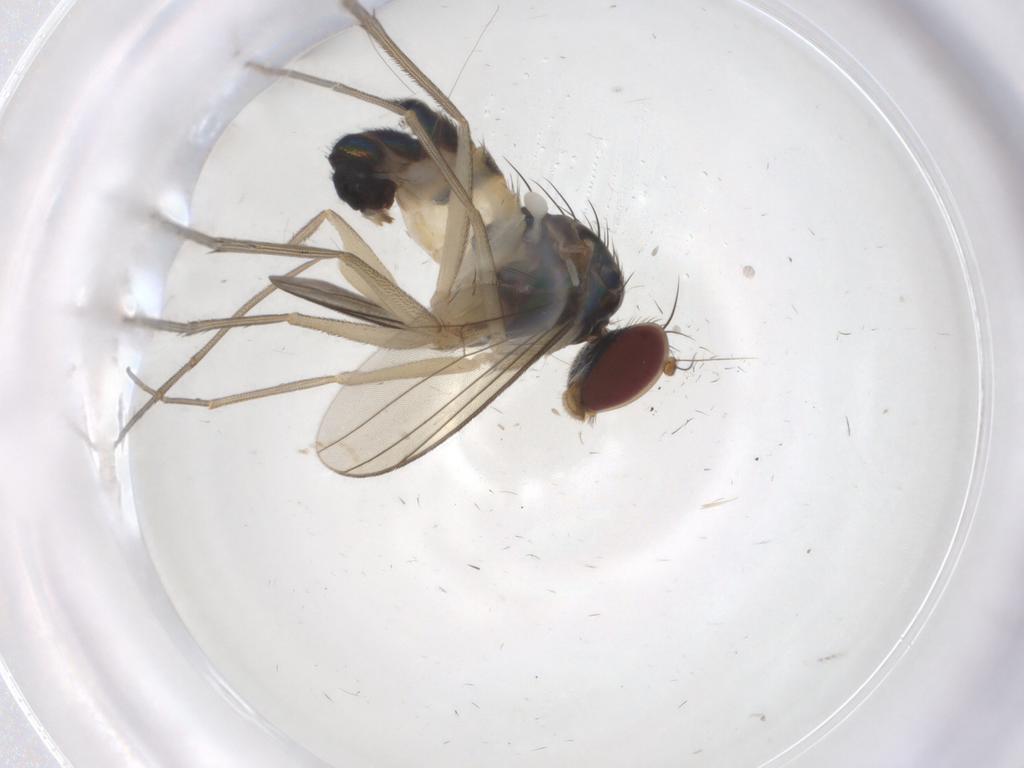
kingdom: Animalia
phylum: Arthropoda
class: Insecta
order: Diptera
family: Dolichopodidae
